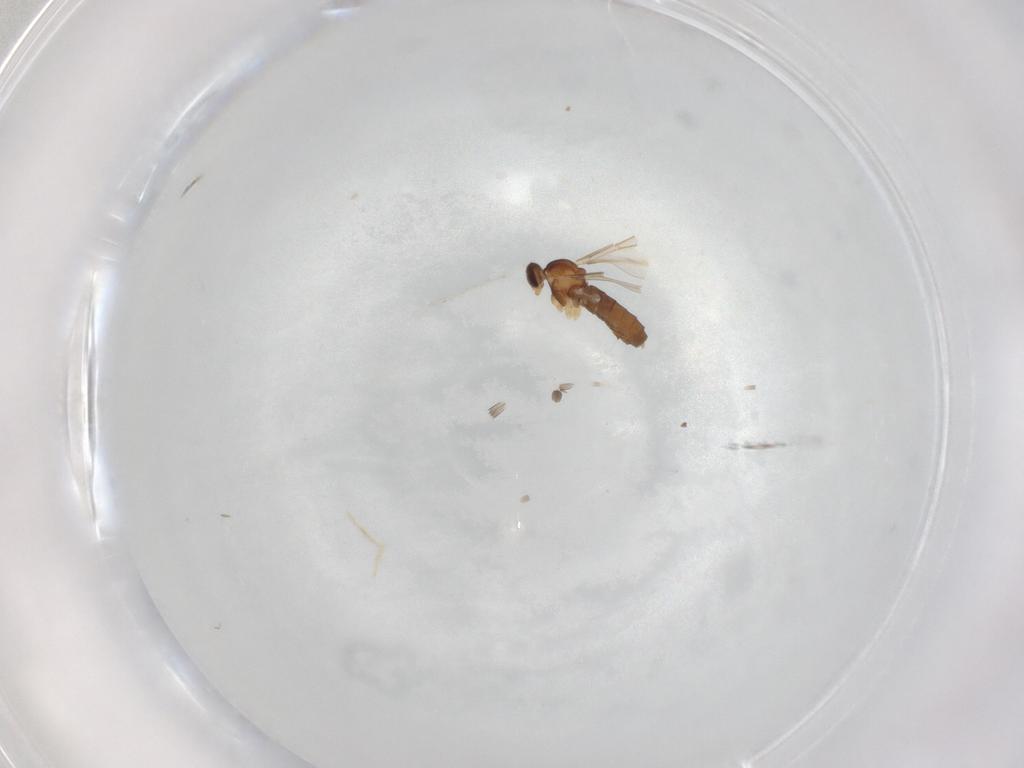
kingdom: Animalia
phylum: Arthropoda
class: Insecta
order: Diptera
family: Cecidomyiidae
